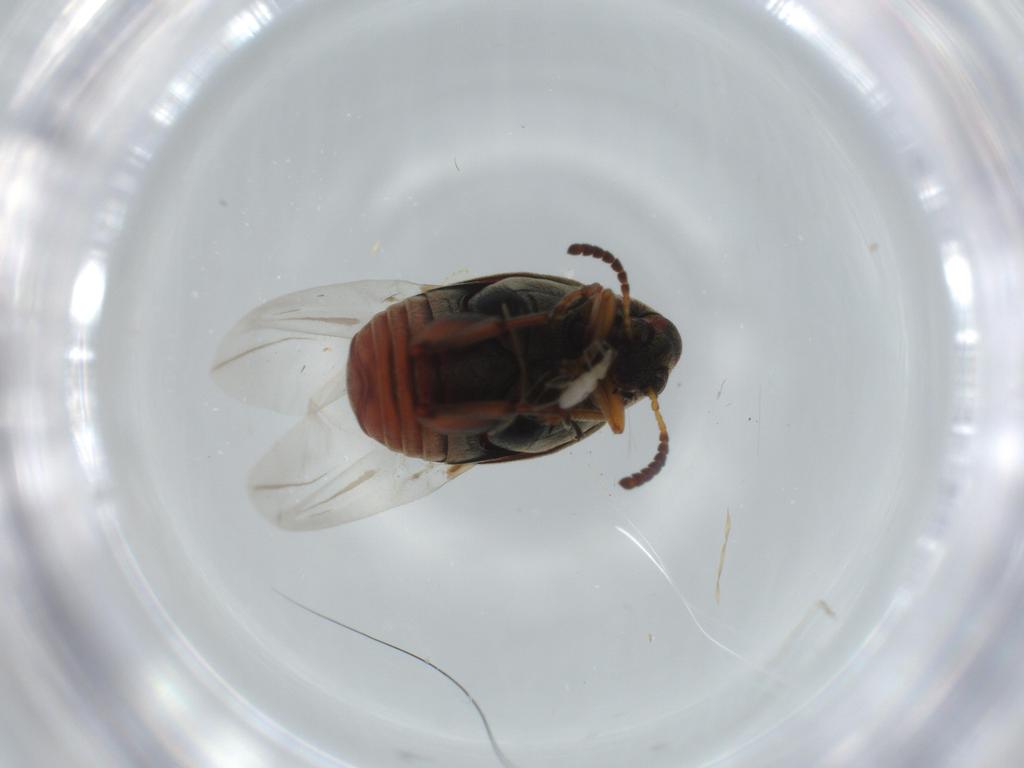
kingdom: Animalia
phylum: Arthropoda
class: Insecta
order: Coleoptera
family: Chrysomelidae
